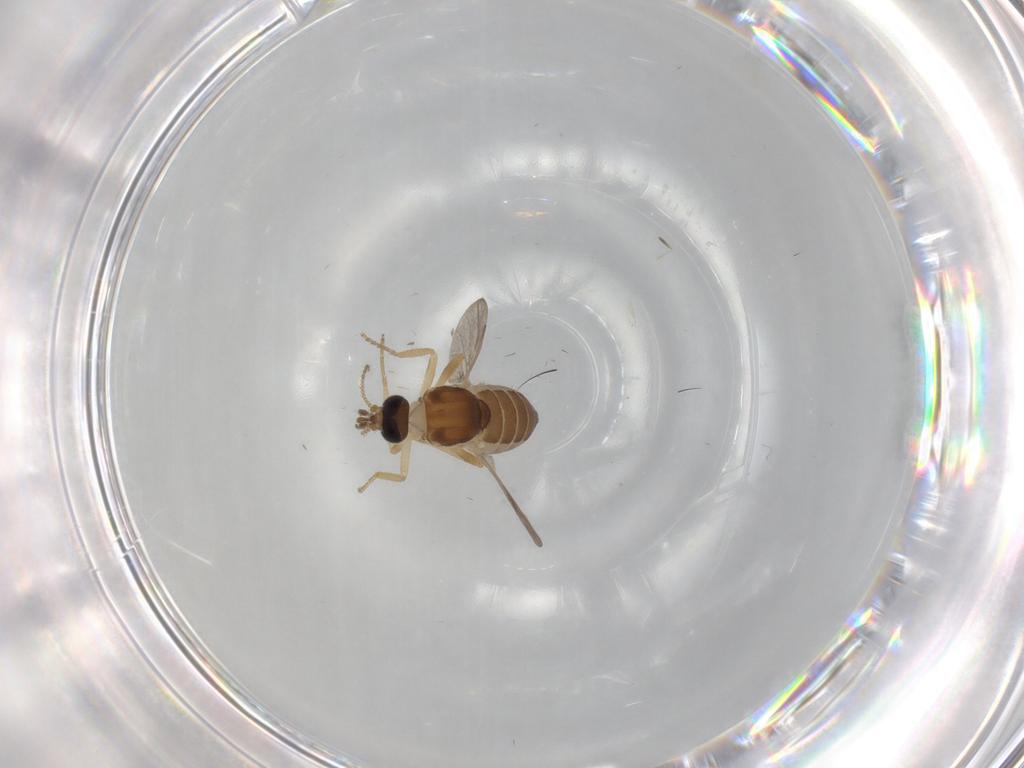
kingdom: Animalia
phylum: Arthropoda
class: Insecta
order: Diptera
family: Ceratopogonidae
